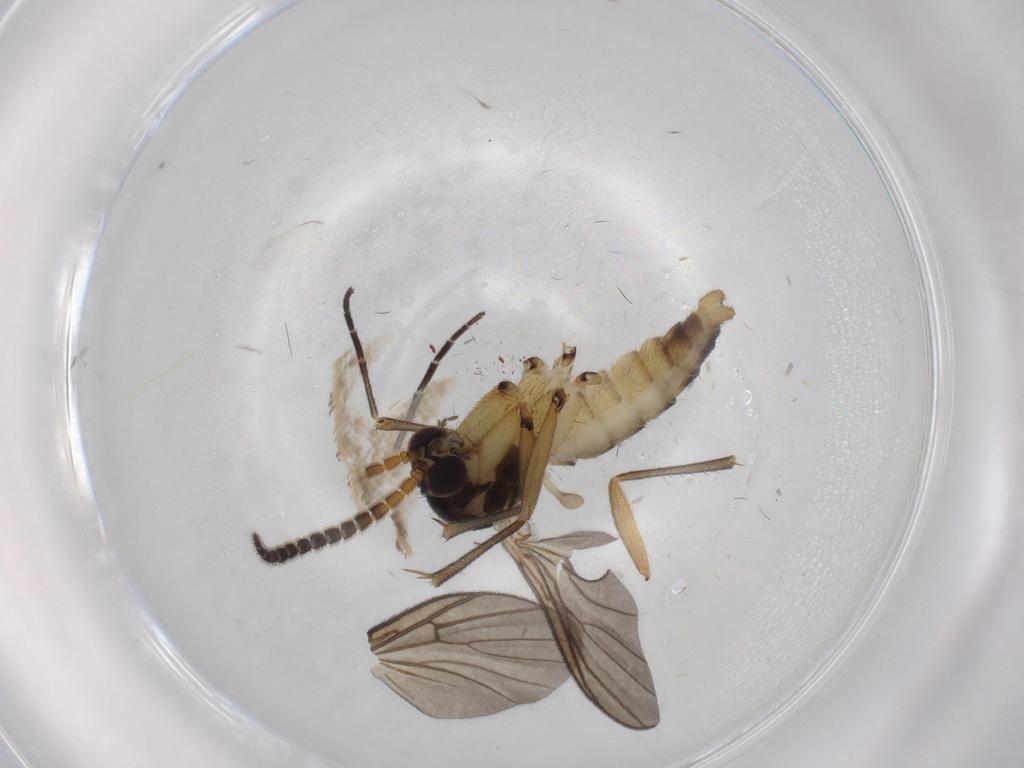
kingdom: Animalia
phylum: Arthropoda
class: Insecta
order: Diptera
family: Sciaridae
